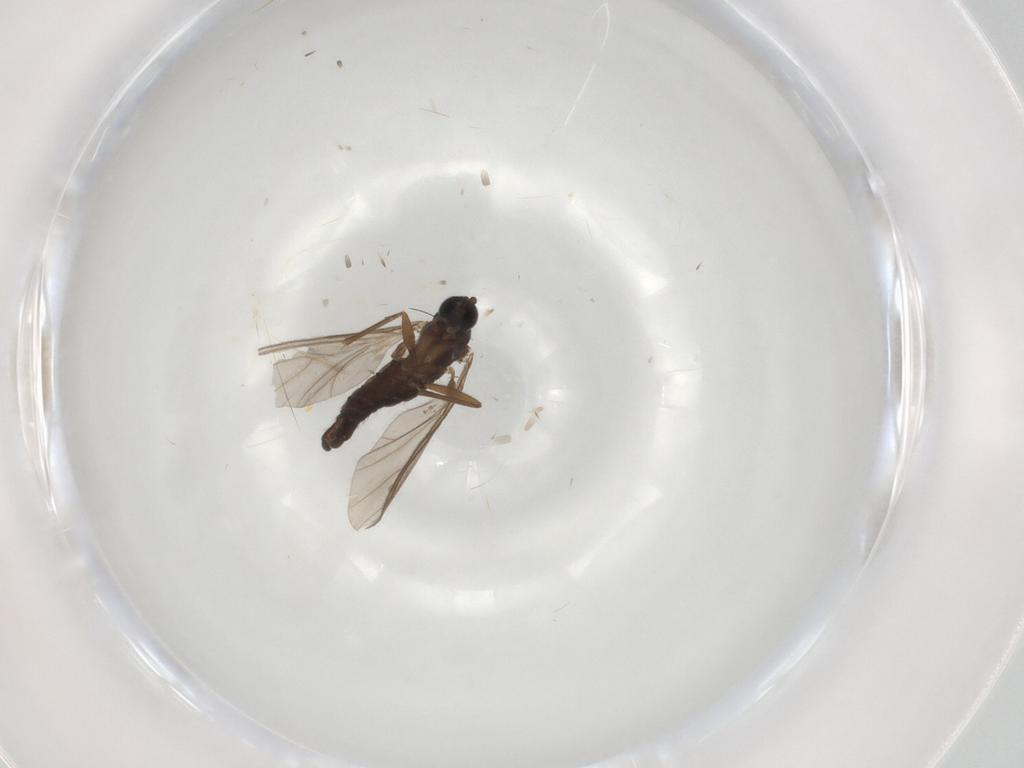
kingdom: Animalia
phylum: Arthropoda
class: Insecta
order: Diptera
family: Sciaridae
